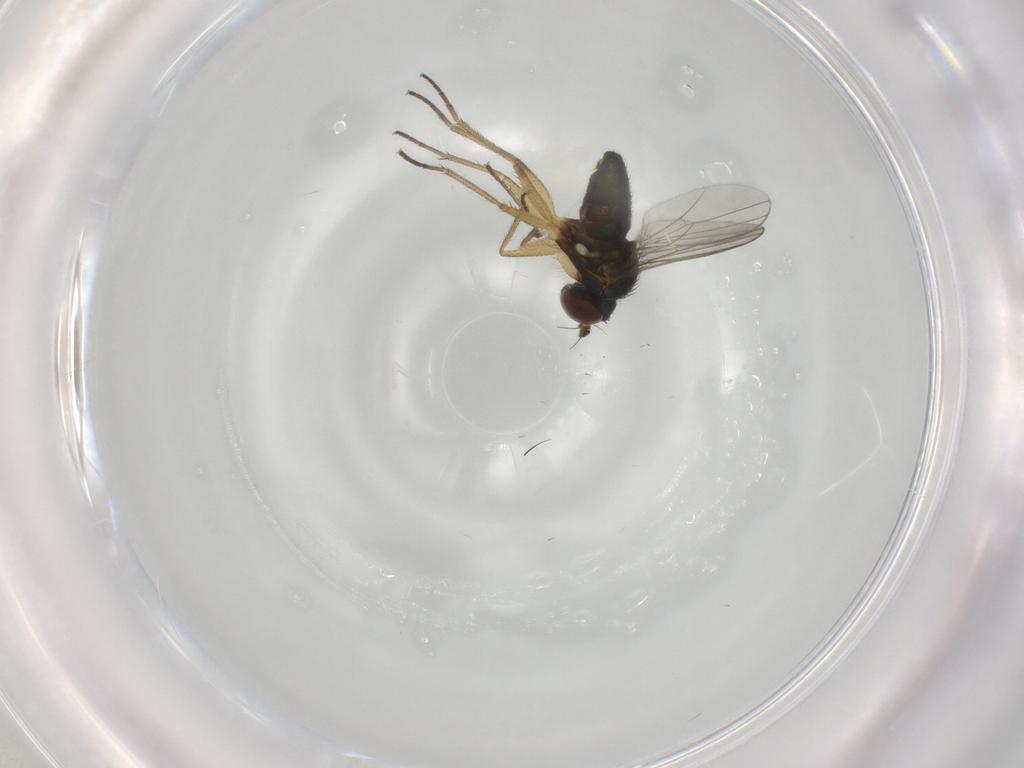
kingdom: Animalia
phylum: Arthropoda
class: Insecta
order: Diptera
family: Dolichopodidae
